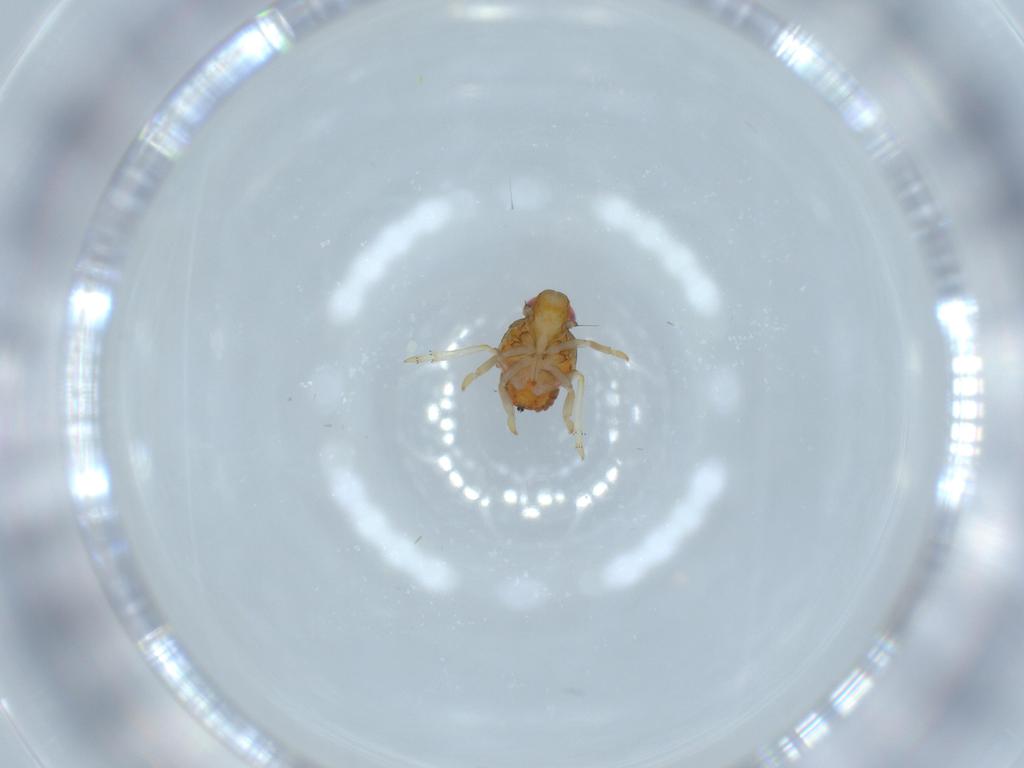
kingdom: Animalia
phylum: Arthropoda
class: Insecta
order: Hemiptera
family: Issidae
